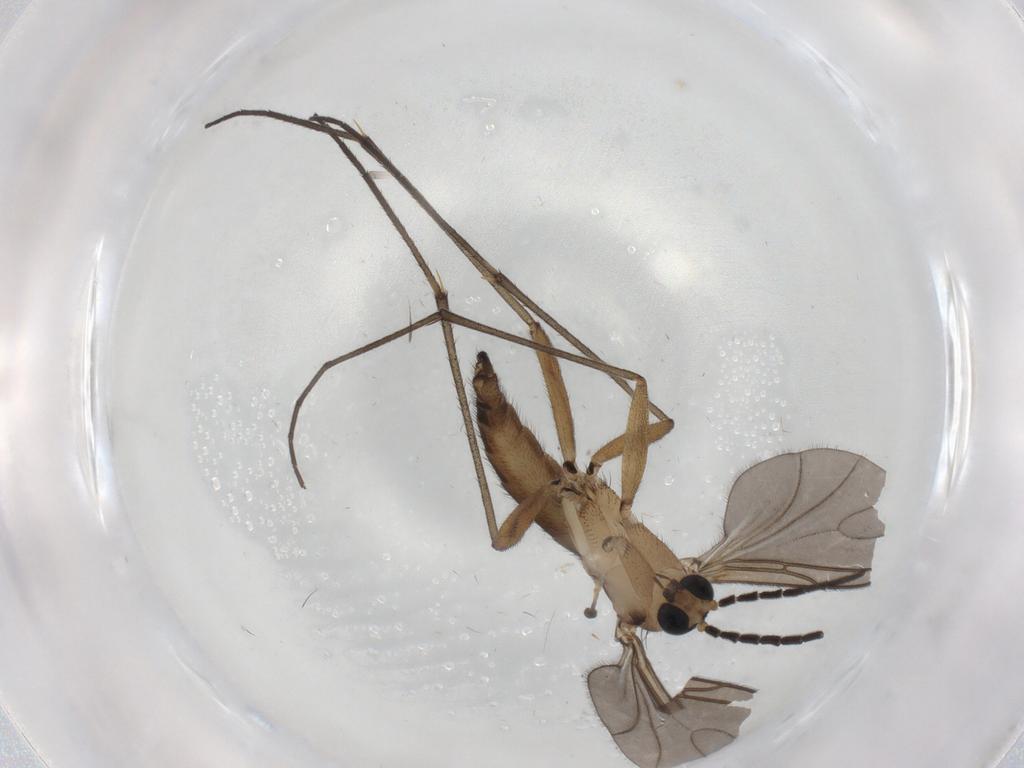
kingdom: Animalia
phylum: Arthropoda
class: Insecta
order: Diptera
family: Sciaridae
